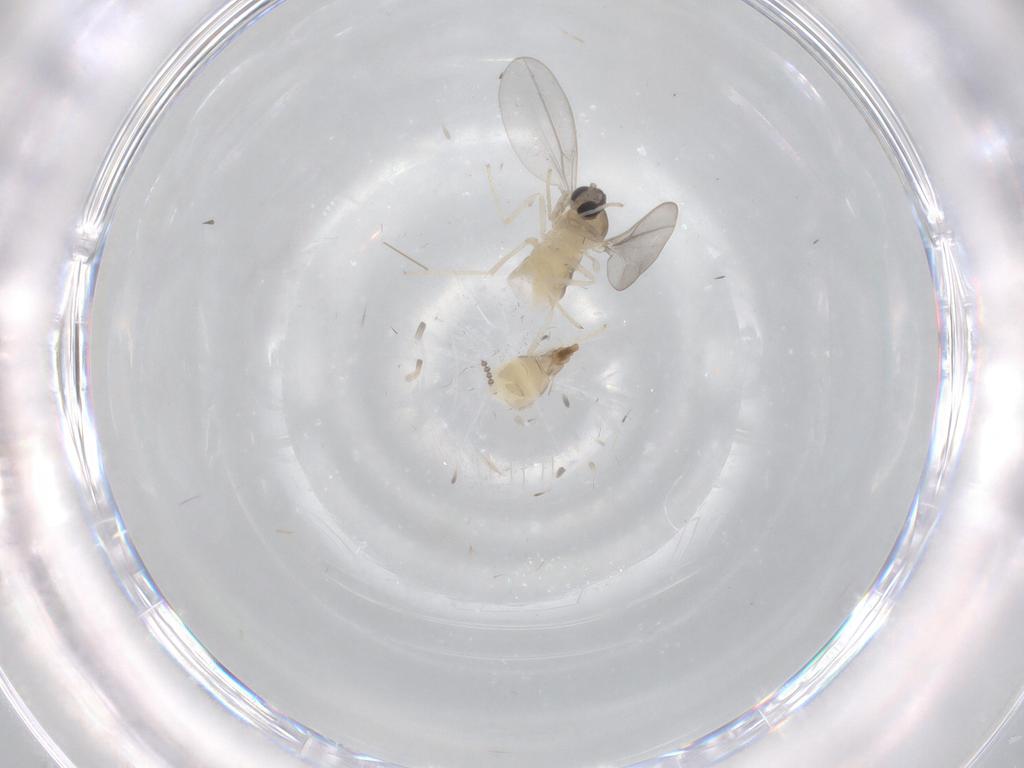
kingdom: Animalia
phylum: Arthropoda
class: Insecta
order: Diptera
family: Cecidomyiidae
